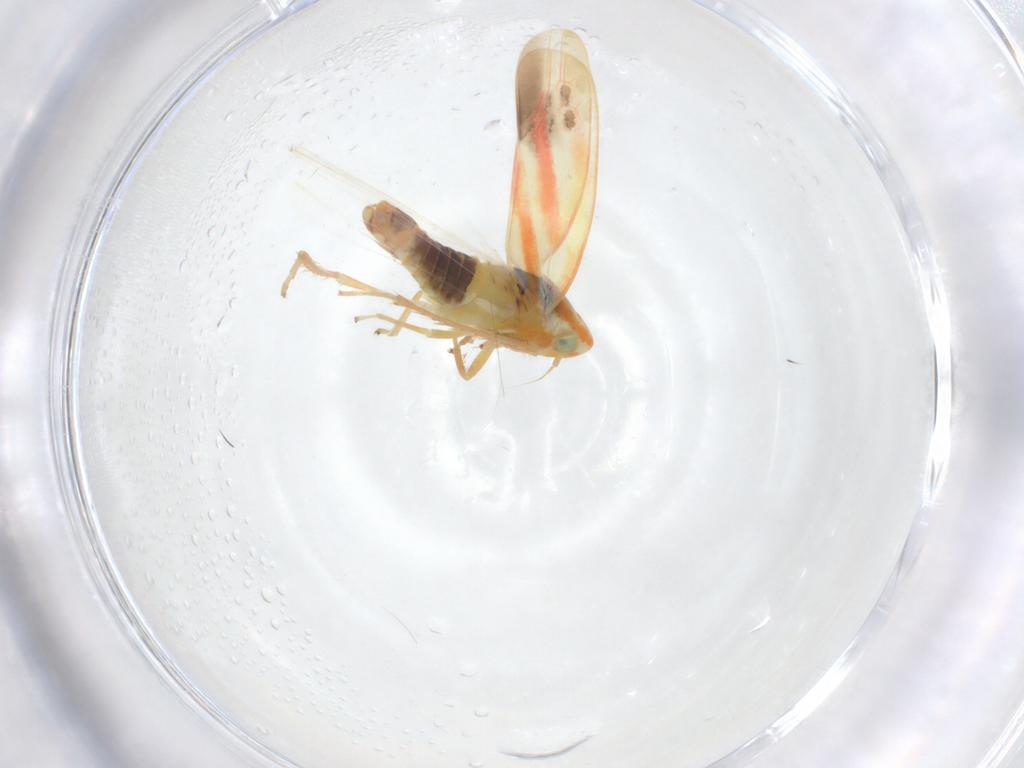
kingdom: Animalia
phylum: Arthropoda
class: Insecta
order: Hemiptera
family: Cicadellidae
